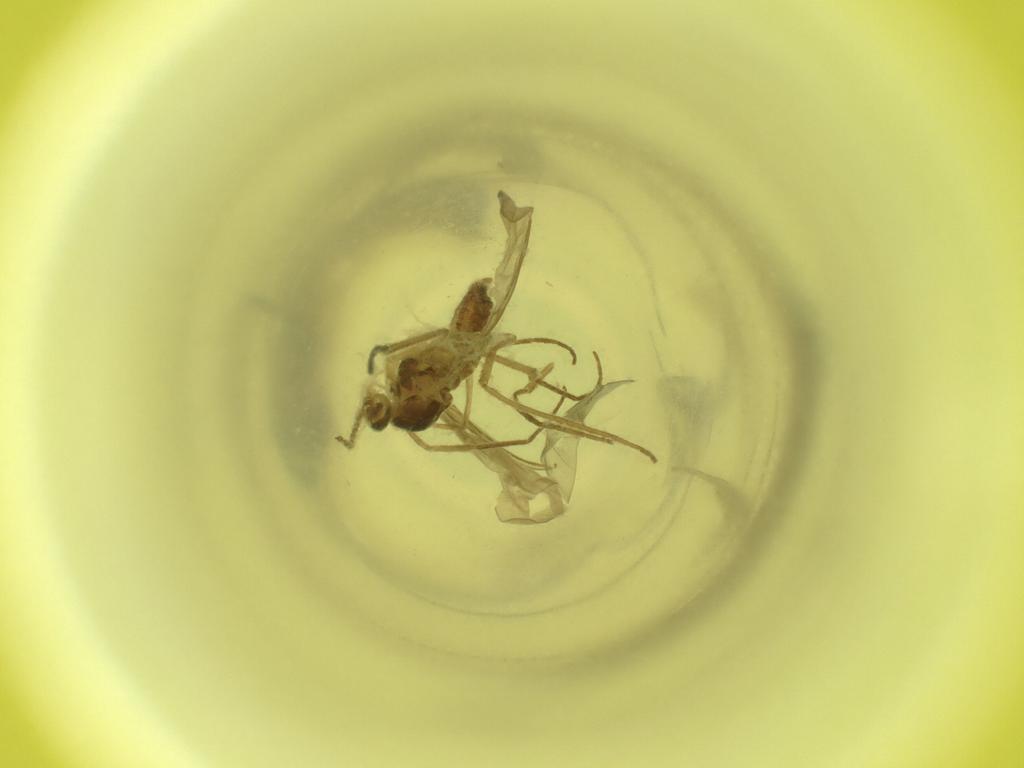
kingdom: Animalia
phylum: Arthropoda
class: Insecta
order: Diptera
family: Cecidomyiidae
